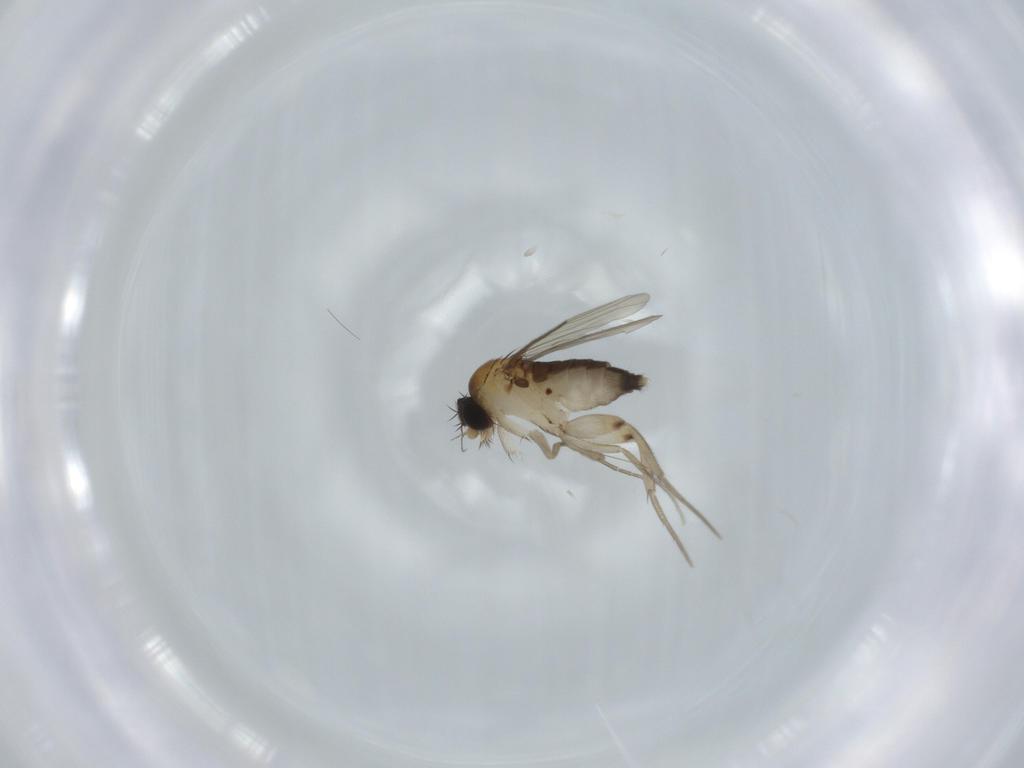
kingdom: Animalia
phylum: Arthropoda
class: Insecta
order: Diptera
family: Phoridae
